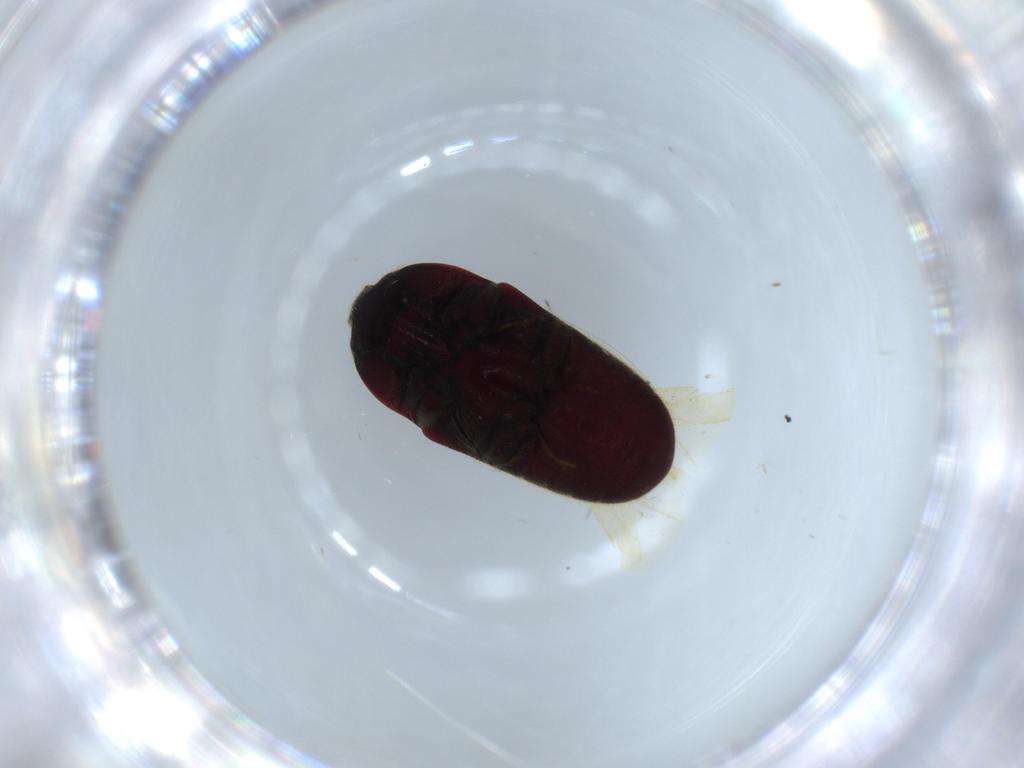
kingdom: Animalia
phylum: Arthropoda
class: Insecta
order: Coleoptera
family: Throscidae
